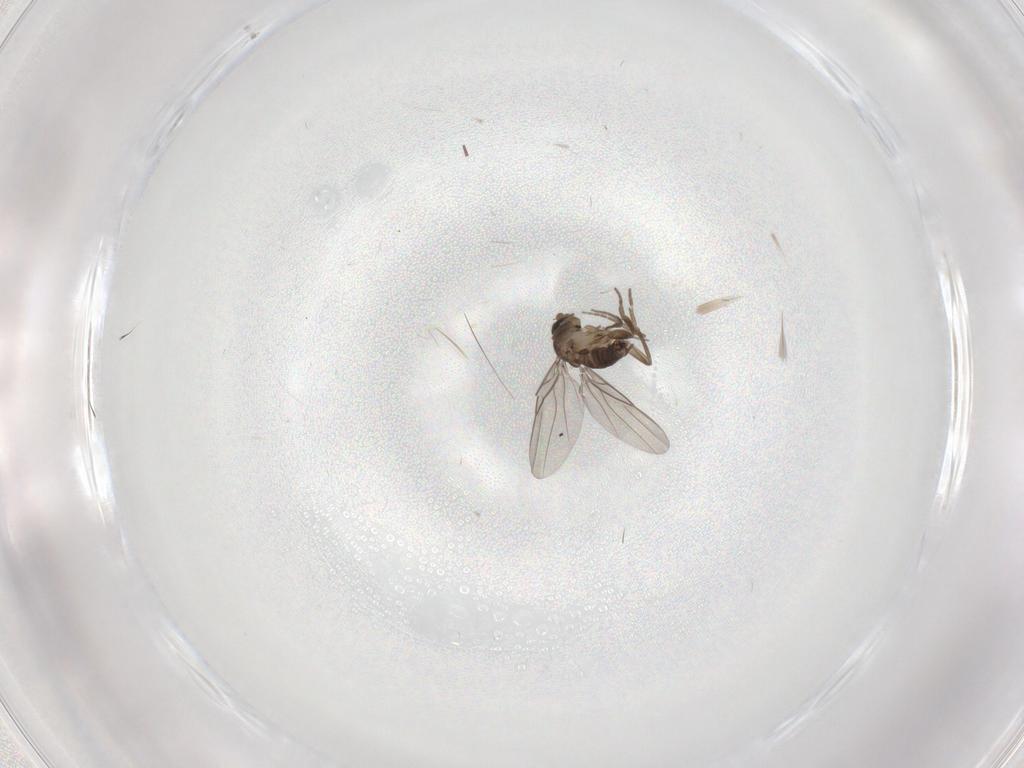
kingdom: Animalia
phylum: Arthropoda
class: Insecta
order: Diptera
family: Phoridae
